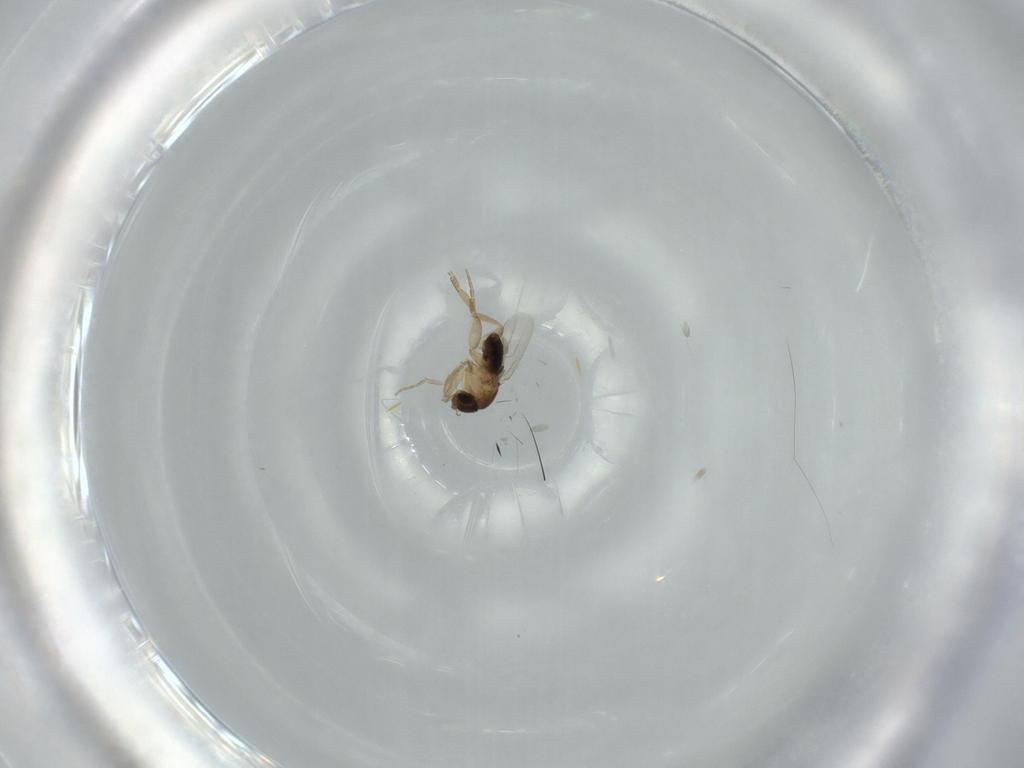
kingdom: Animalia
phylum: Arthropoda
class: Insecta
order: Diptera
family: Phoridae
